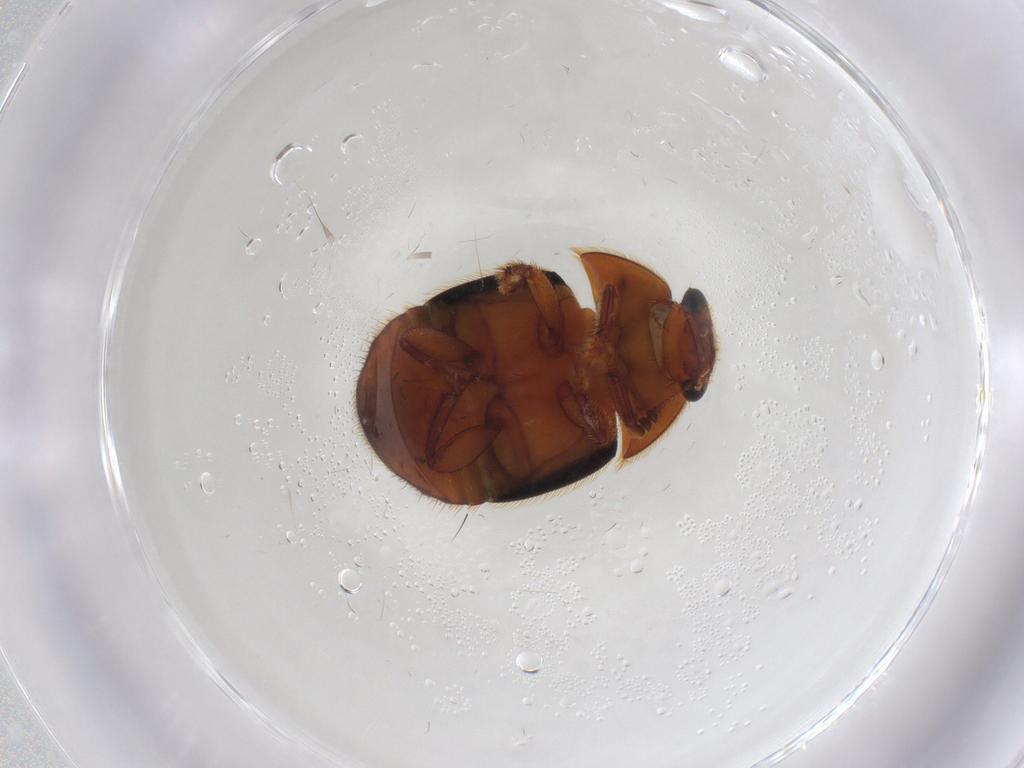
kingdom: Animalia
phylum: Arthropoda
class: Insecta
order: Coleoptera
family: Nitidulidae
